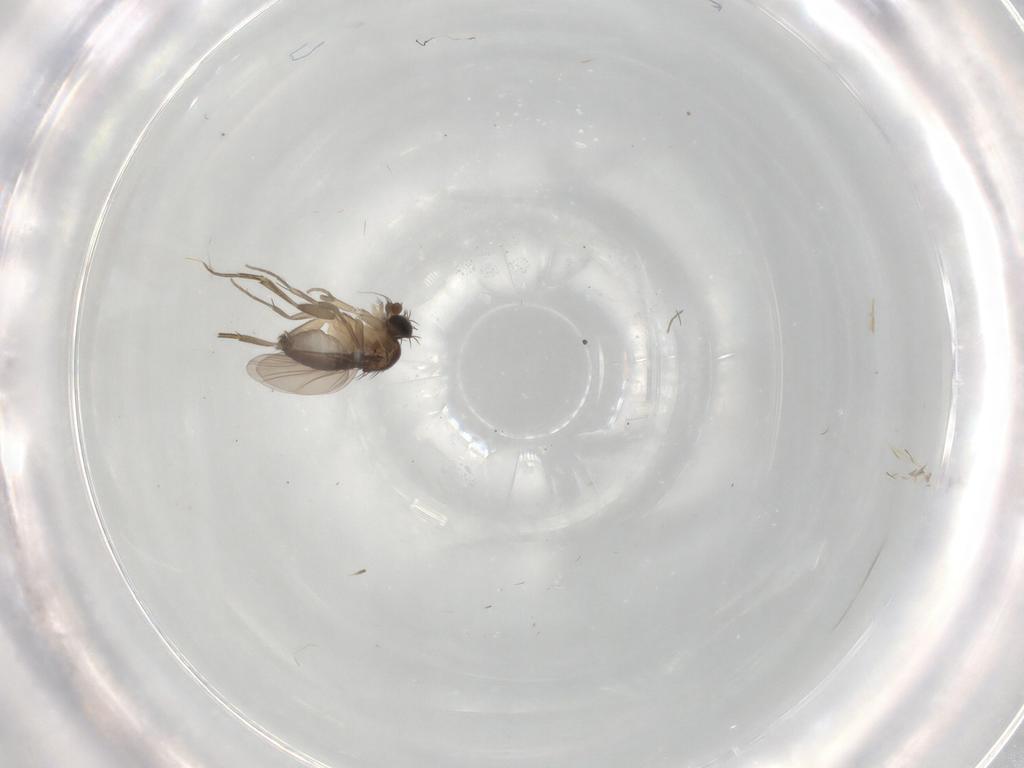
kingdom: Animalia
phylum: Arthropoda
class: Insecta
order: Diptera
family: Phoridae
